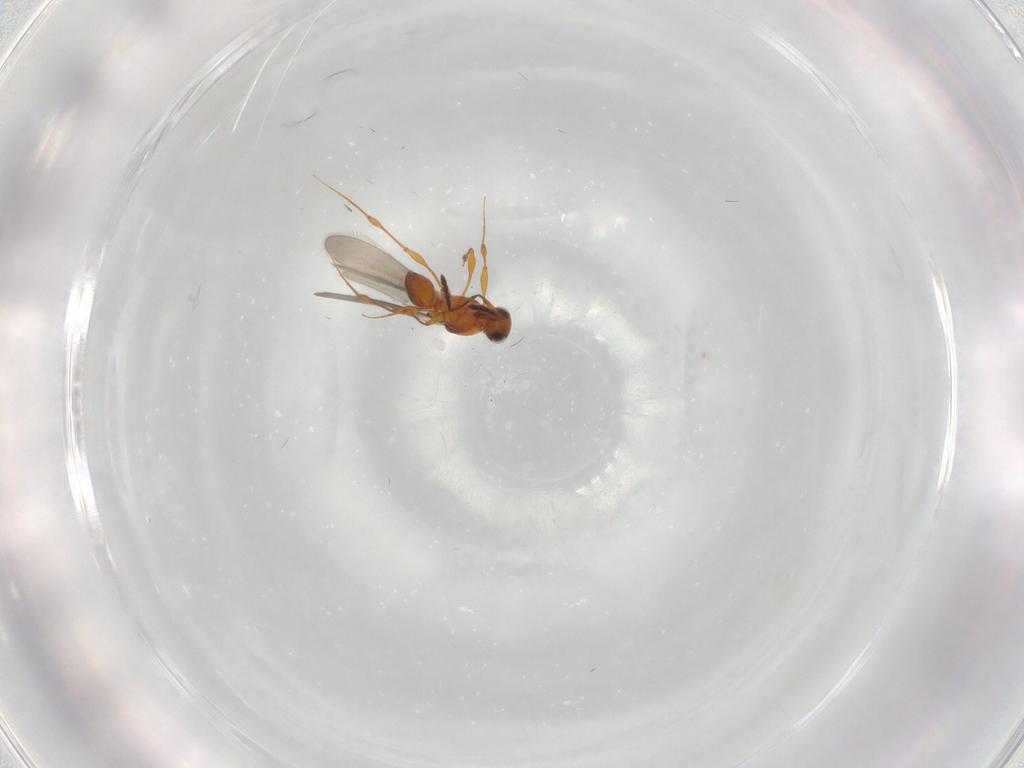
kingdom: Animalia
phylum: Arthropoda
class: Insecta
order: Hymenoptera
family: Platygastridae
